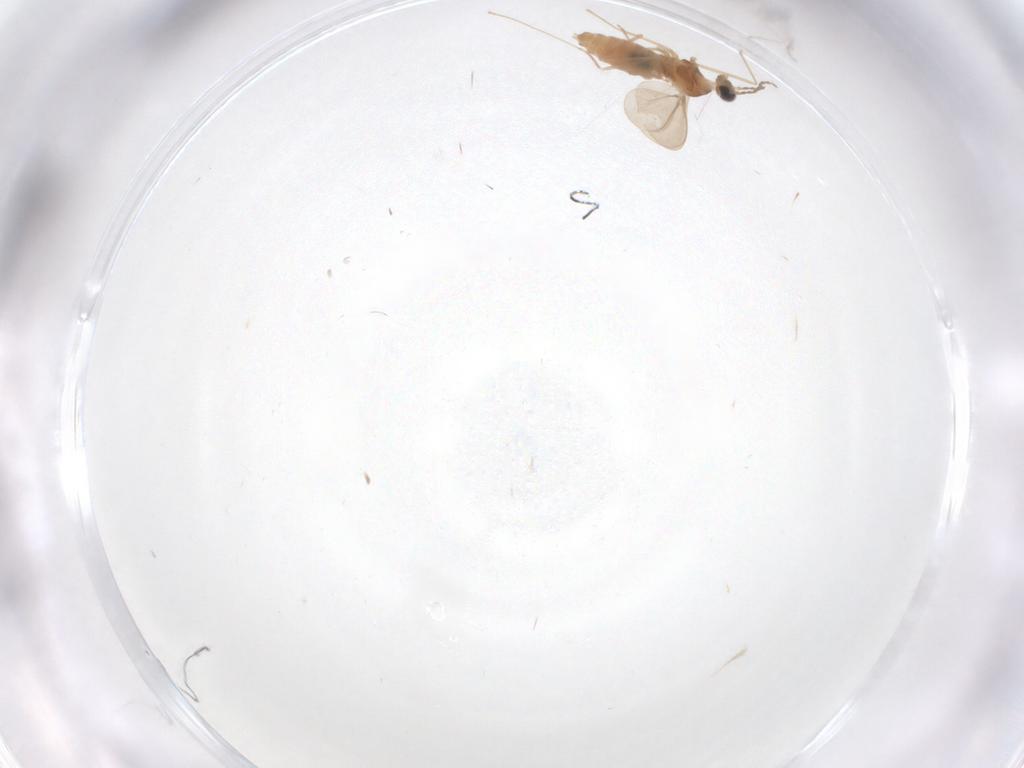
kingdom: Animalia
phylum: Arthropoda
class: Insecta
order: Diptera
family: Cecidomyiidae
